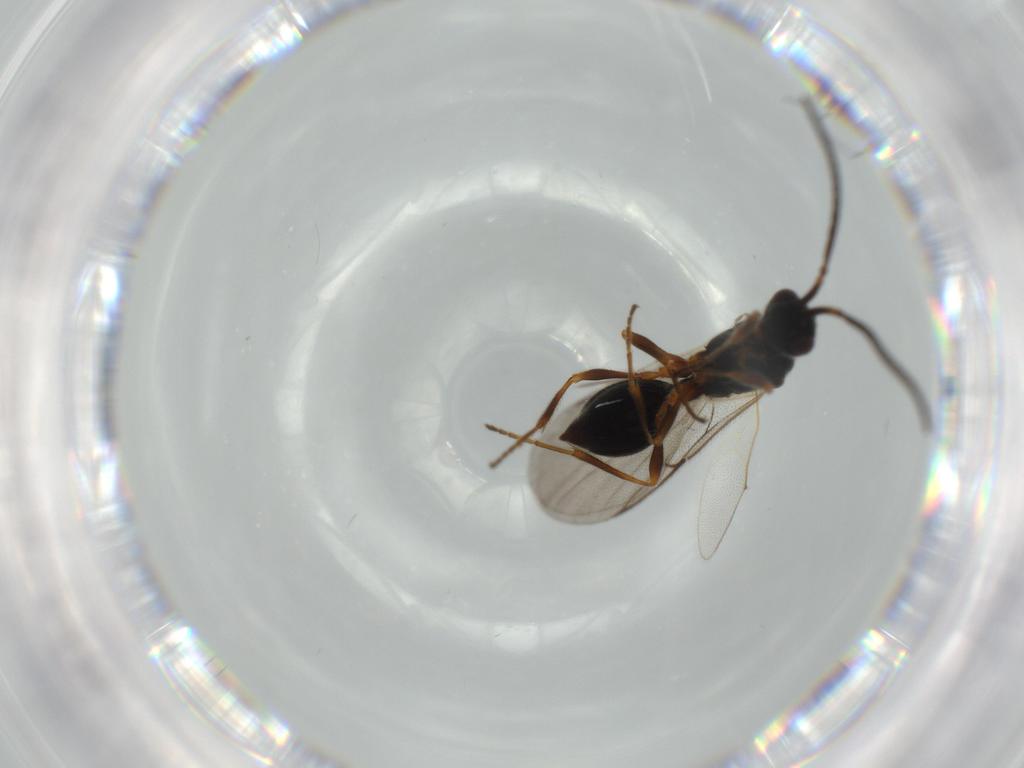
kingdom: Animalia
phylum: Arthropoda
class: Insecta
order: Hymenoptera
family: Diapriidae
